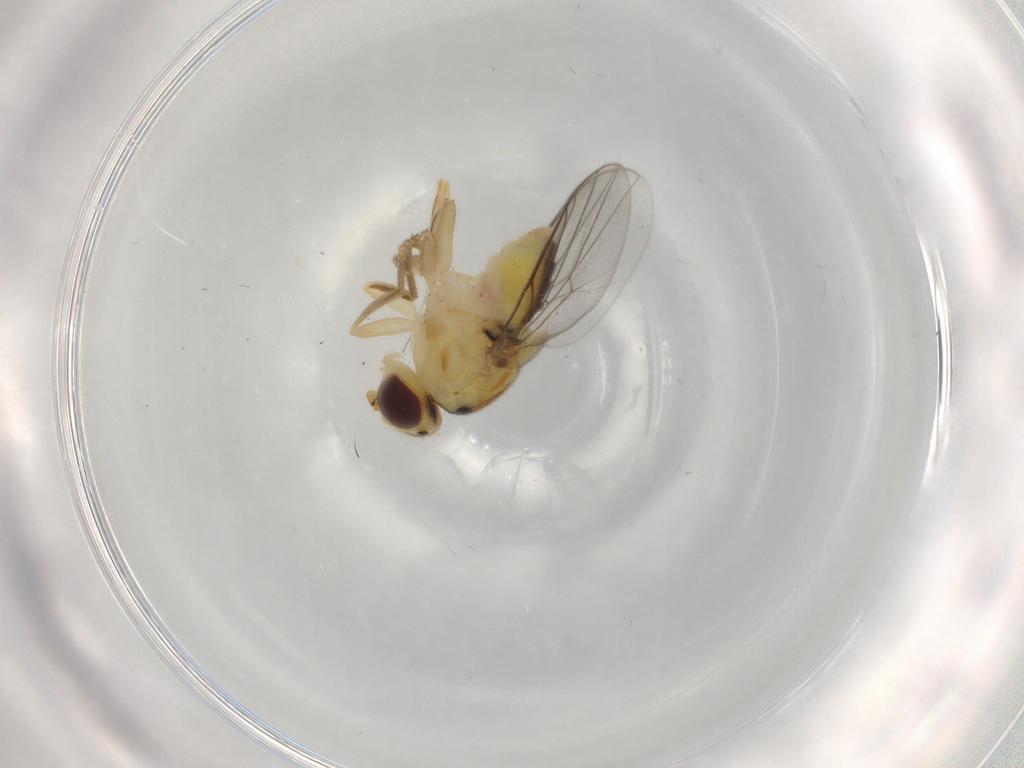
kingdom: Animalia
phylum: Arthropoda
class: Insecta
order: Diptera
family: Chloropidae
